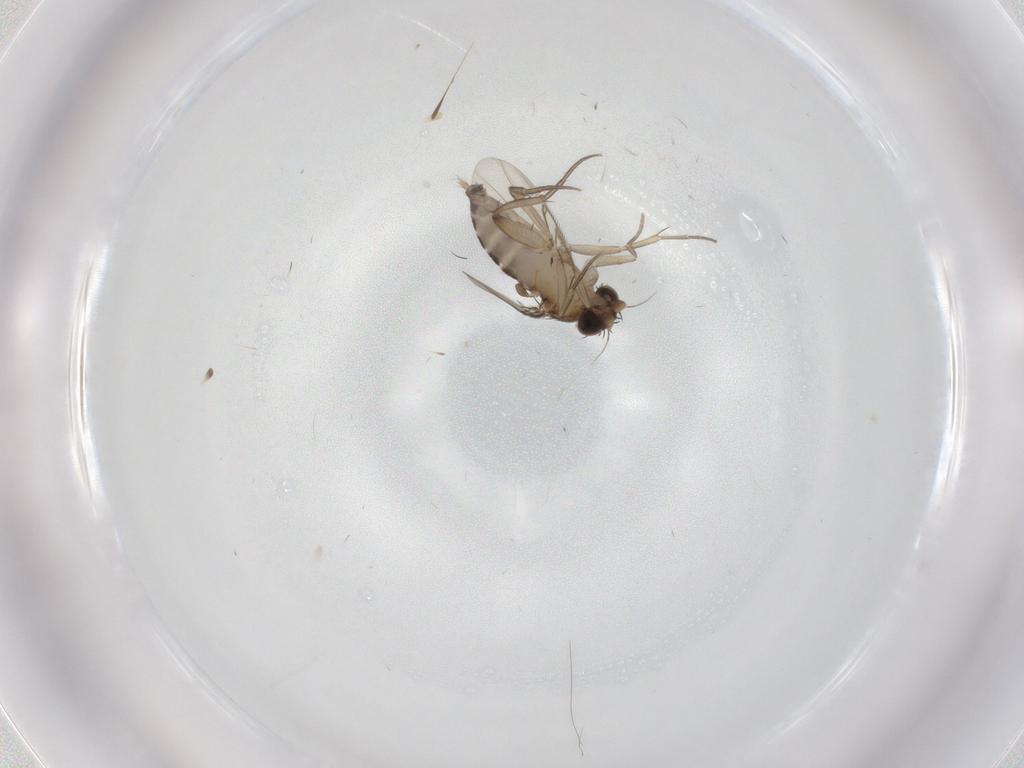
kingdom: Animalia
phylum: Arthropoda
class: Insecta
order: Diptera
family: Phoridae
